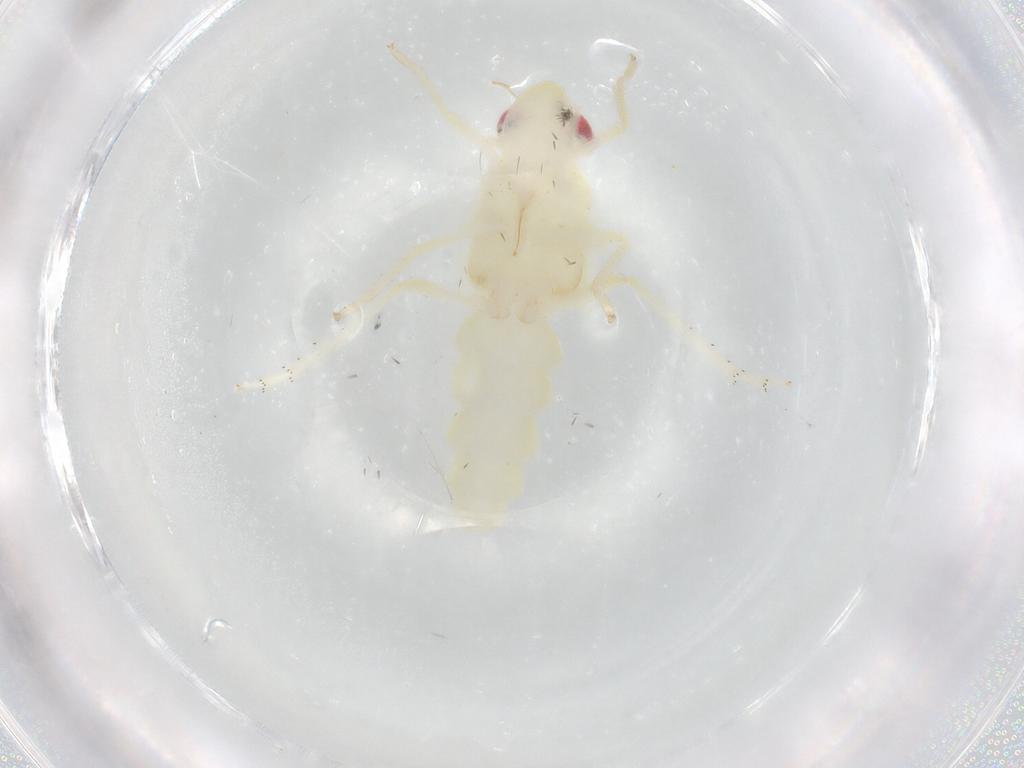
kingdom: Animalia
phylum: Arthropoda
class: Insecta
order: Hemiptera
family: Tropiduchidae
